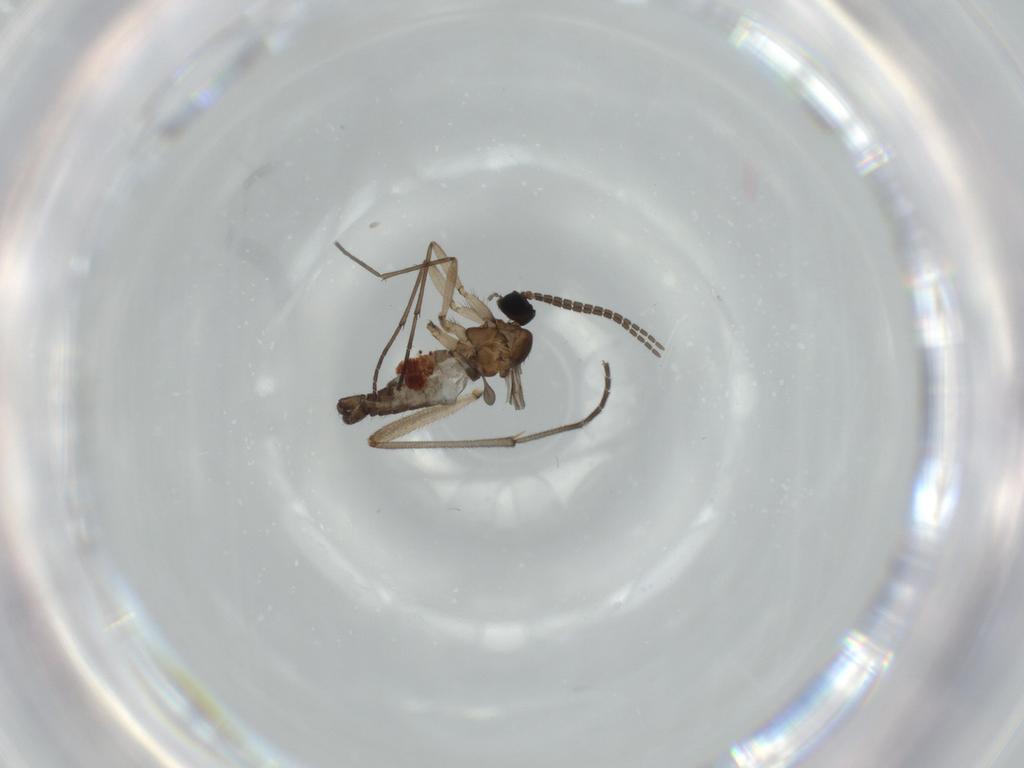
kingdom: Animalia
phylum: Arthropoda
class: Insecta
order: Diptera
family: Sciaridae
